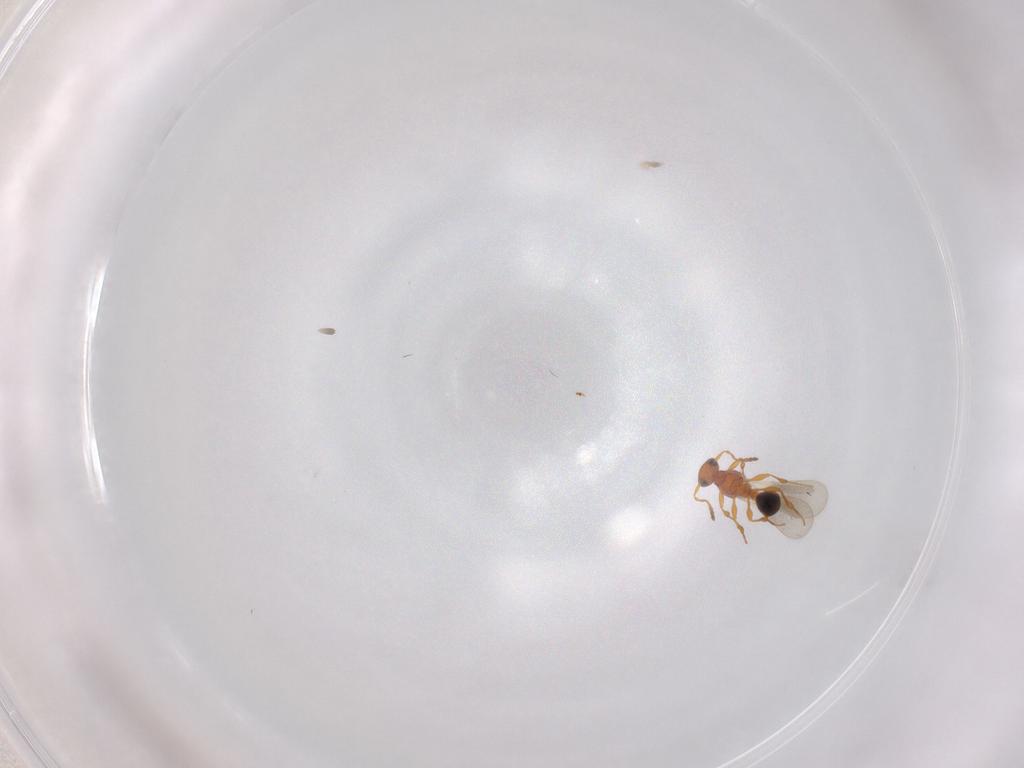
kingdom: Animalia
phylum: Arthropoda
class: Insecta
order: Hymenoptera
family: Platygastridae
